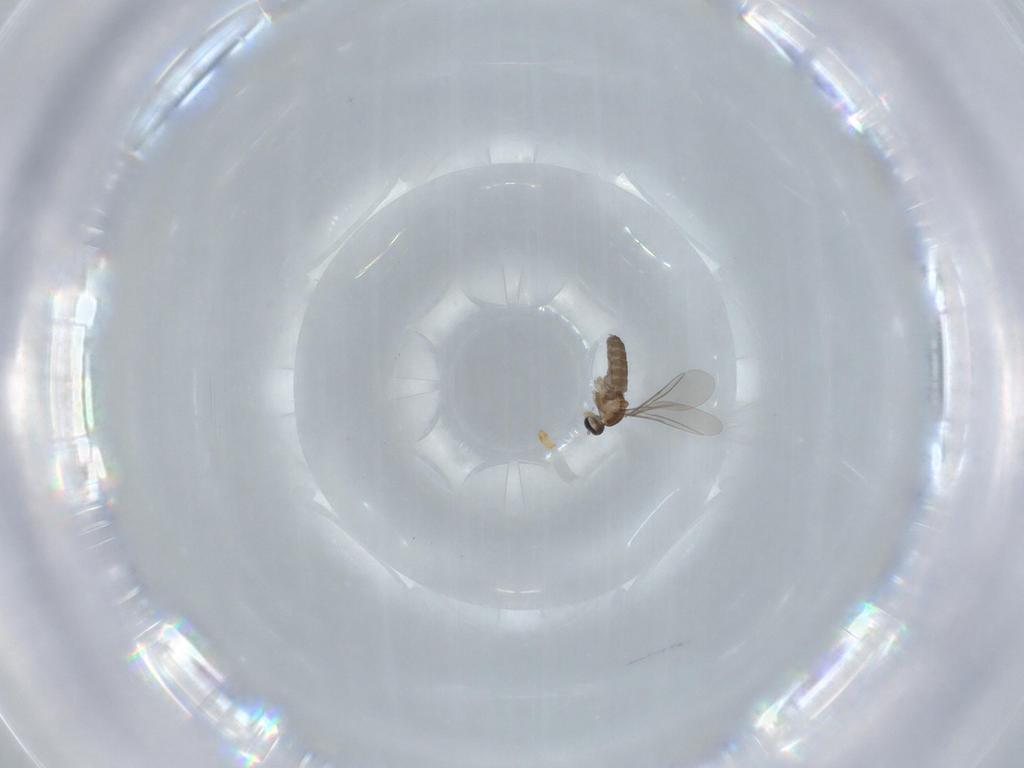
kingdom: Animalia
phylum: Arthropoda
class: Insecta
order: Diptera
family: Cecidomyiidae
